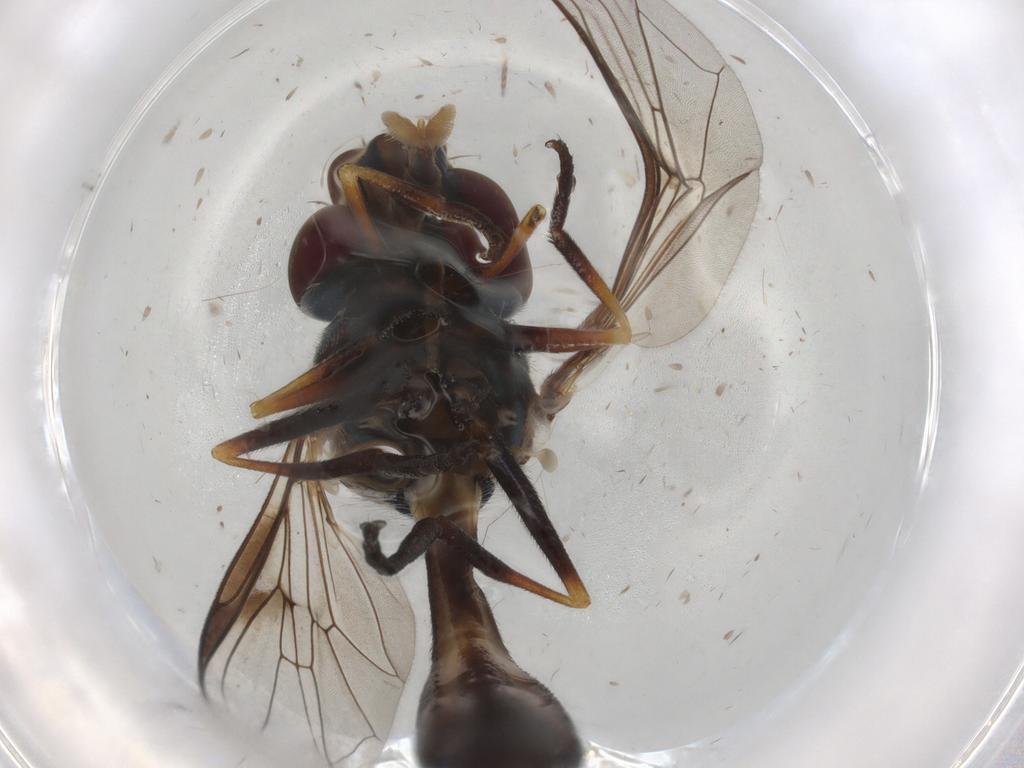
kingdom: Animalia
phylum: Arthropoda
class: Insecta
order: Diptera
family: Syrphidae
